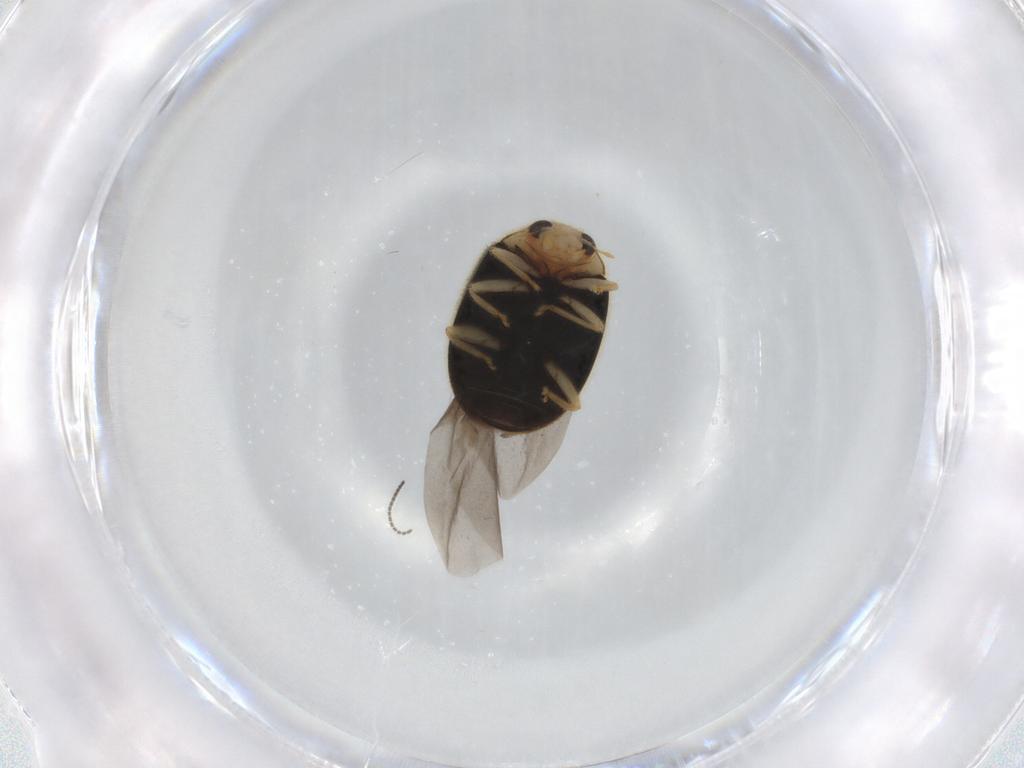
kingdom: Animalia
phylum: Arthropoda
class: Insecta
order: Coleoptera
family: Coccinellidae
